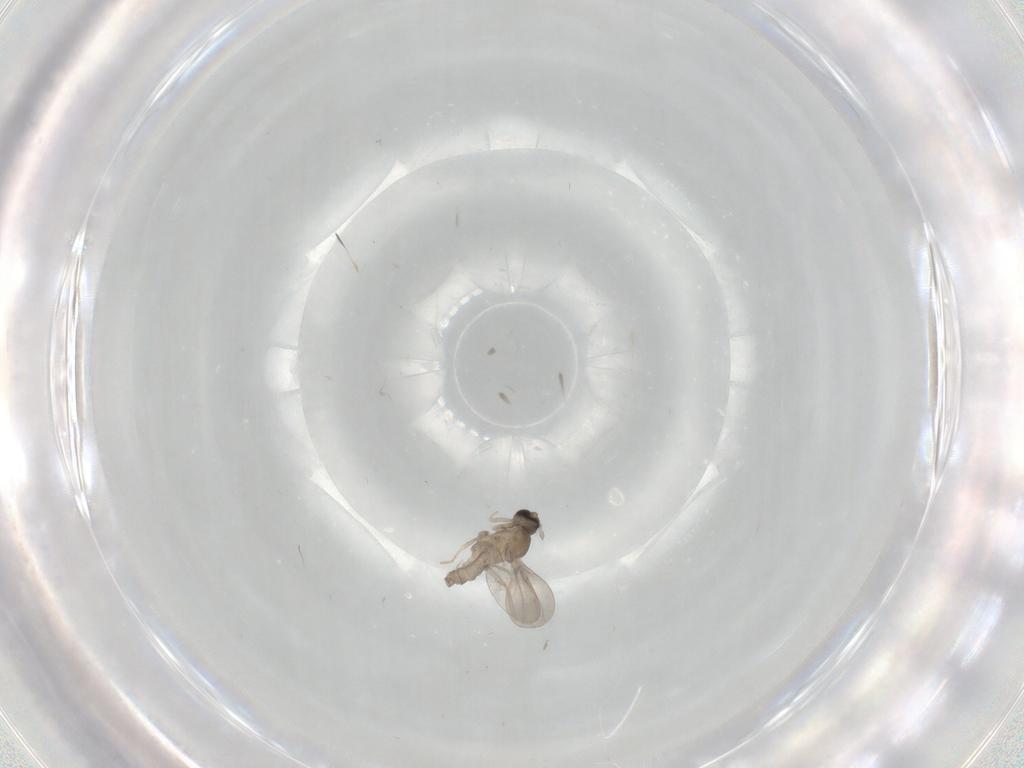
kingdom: Animalia
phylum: Arthropoda
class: Insecta
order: Diptera
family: Cecidomyiidae
